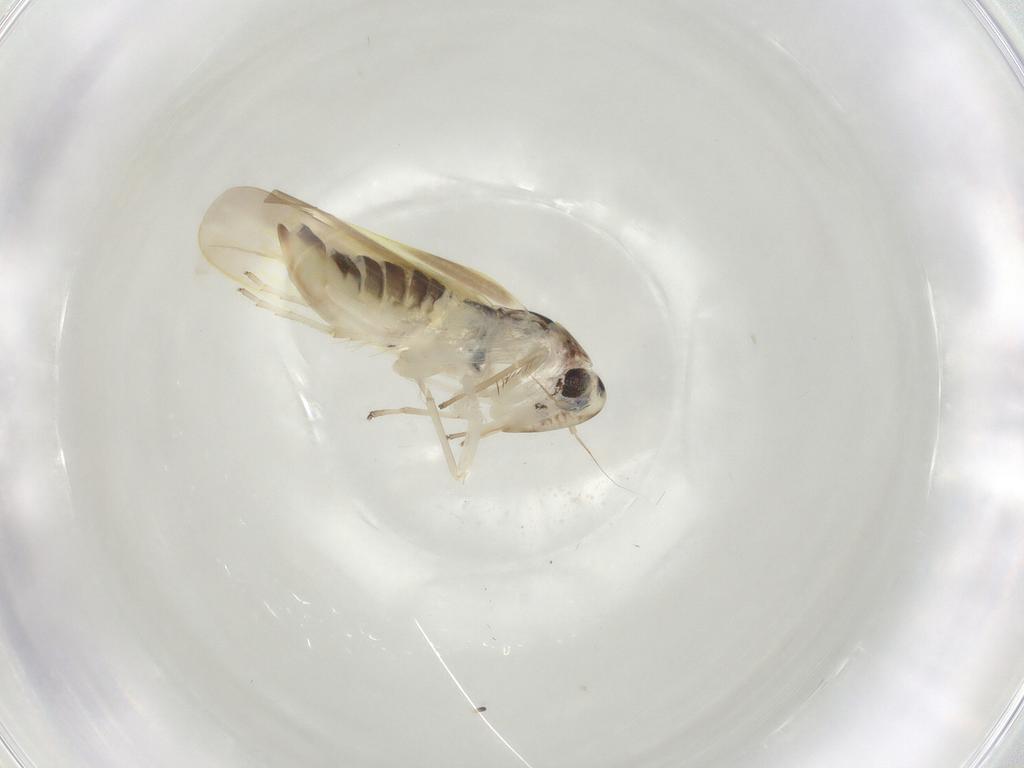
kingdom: Animalia
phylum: Arthropoda
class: Insecta
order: Hemiptera
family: Cicadellidae
